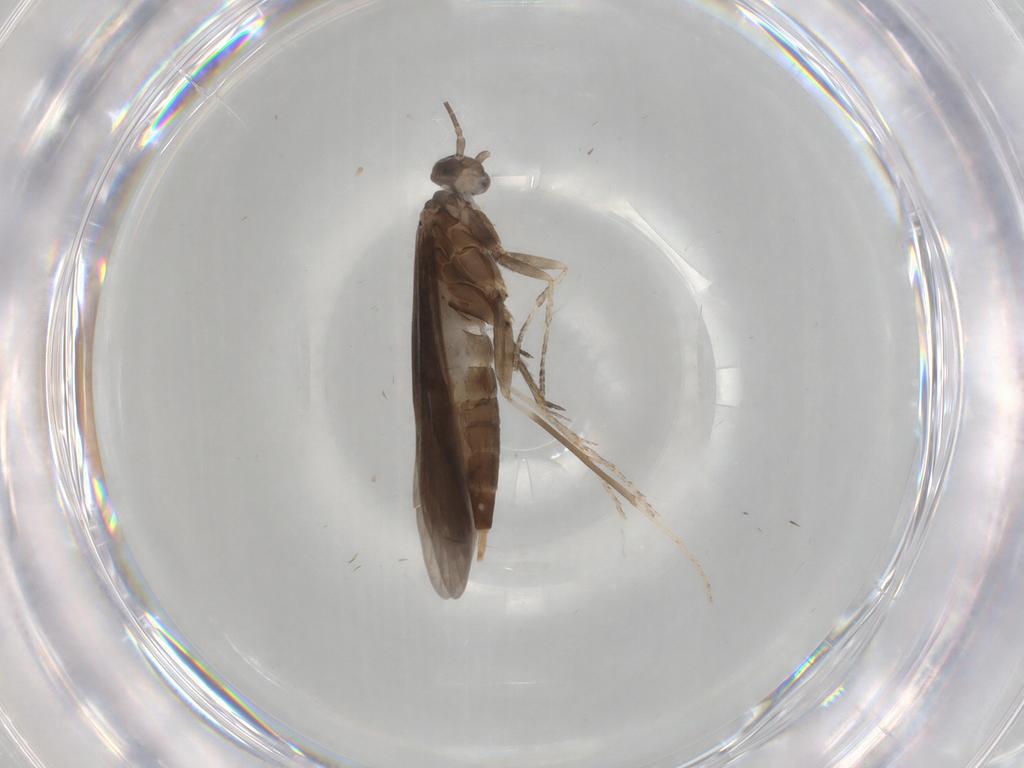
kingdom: Animalia
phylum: Arthropoda
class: Insecta
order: Trichoptera
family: Xiphocentronidae
